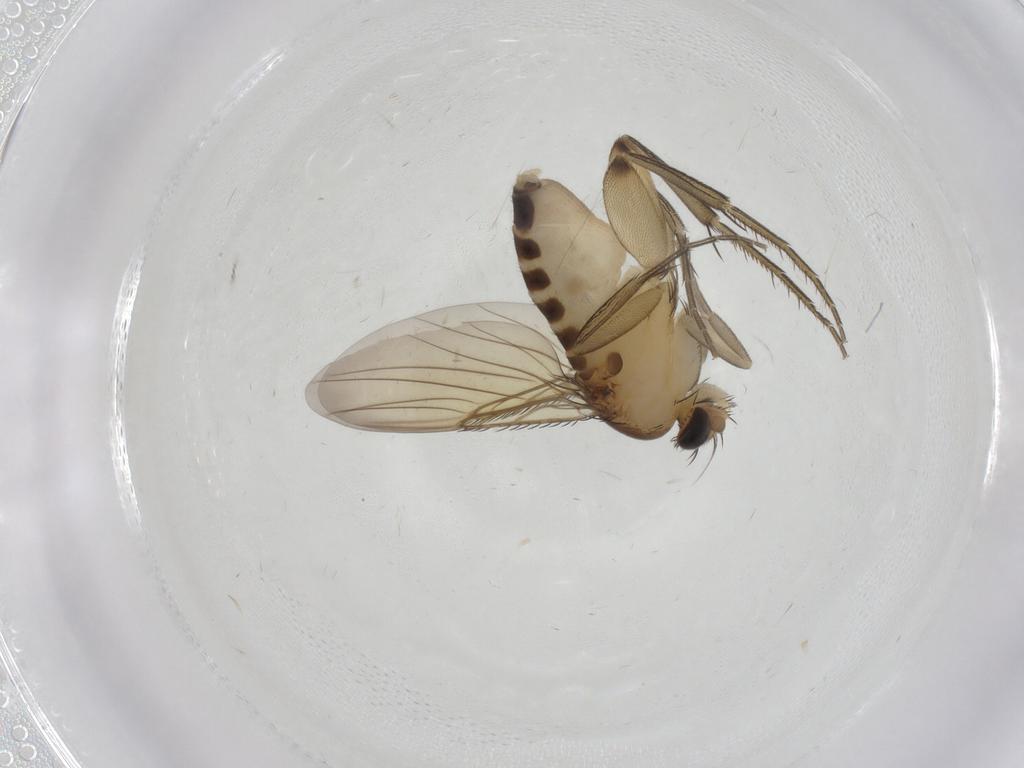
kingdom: Animalia
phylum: Arthropoda
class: Insecta
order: Diptera
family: Phoridae
